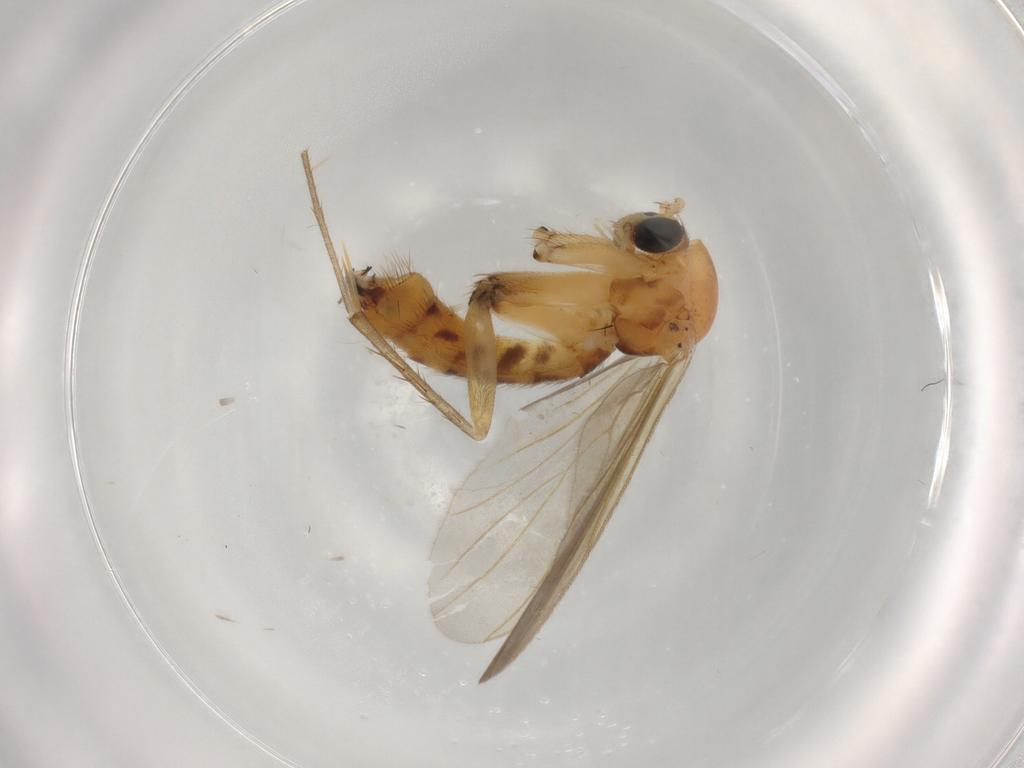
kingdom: Animalia
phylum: Arthropoda
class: Insecta
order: Diptera
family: Mycetophilidae
